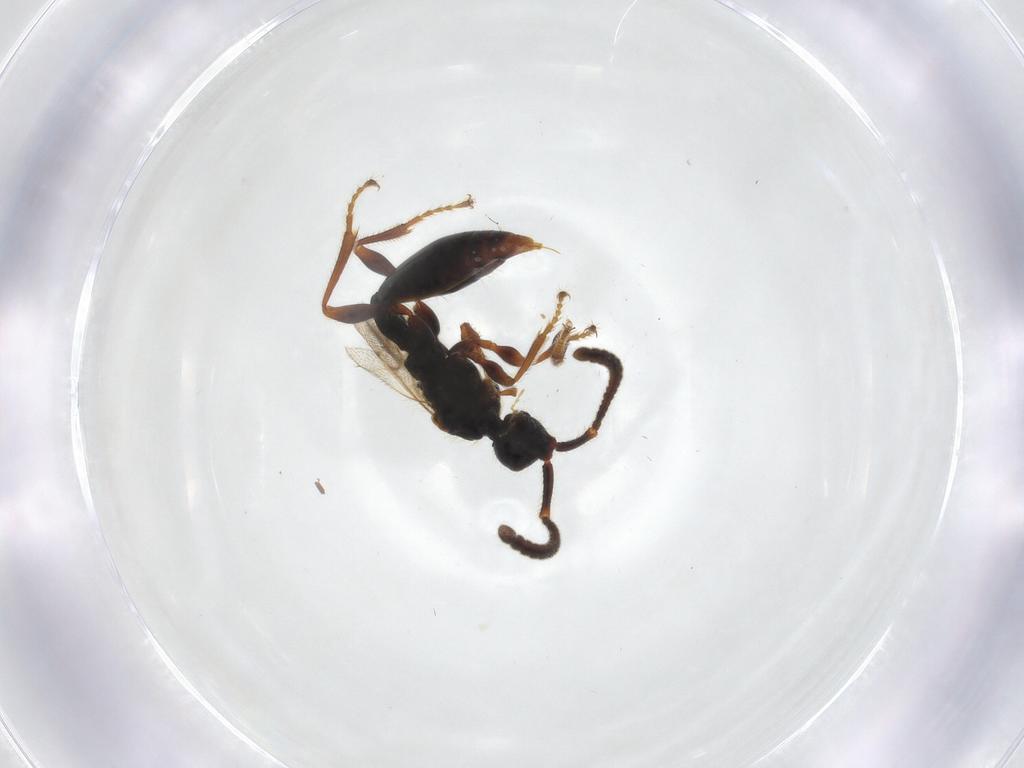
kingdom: Animalia
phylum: Arthropoda
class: Insecta
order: Hymenoptera
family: Diapriidae
